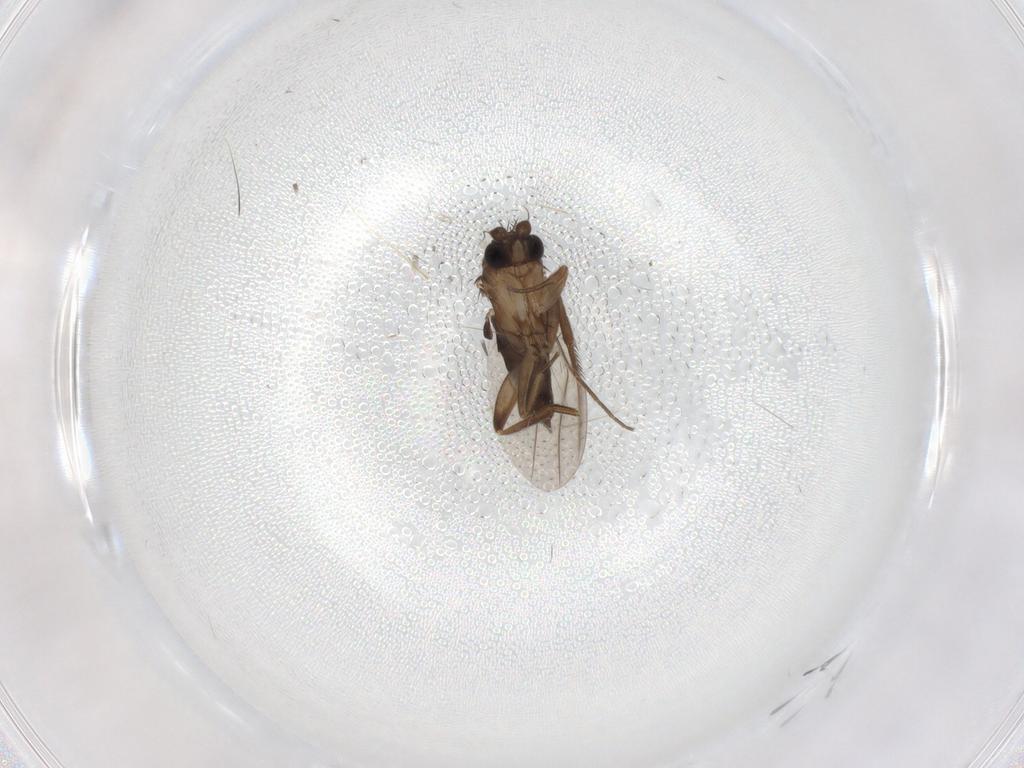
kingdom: Animalia
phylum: Arthropoda
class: Insecta
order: Diptera
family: Phoridae
